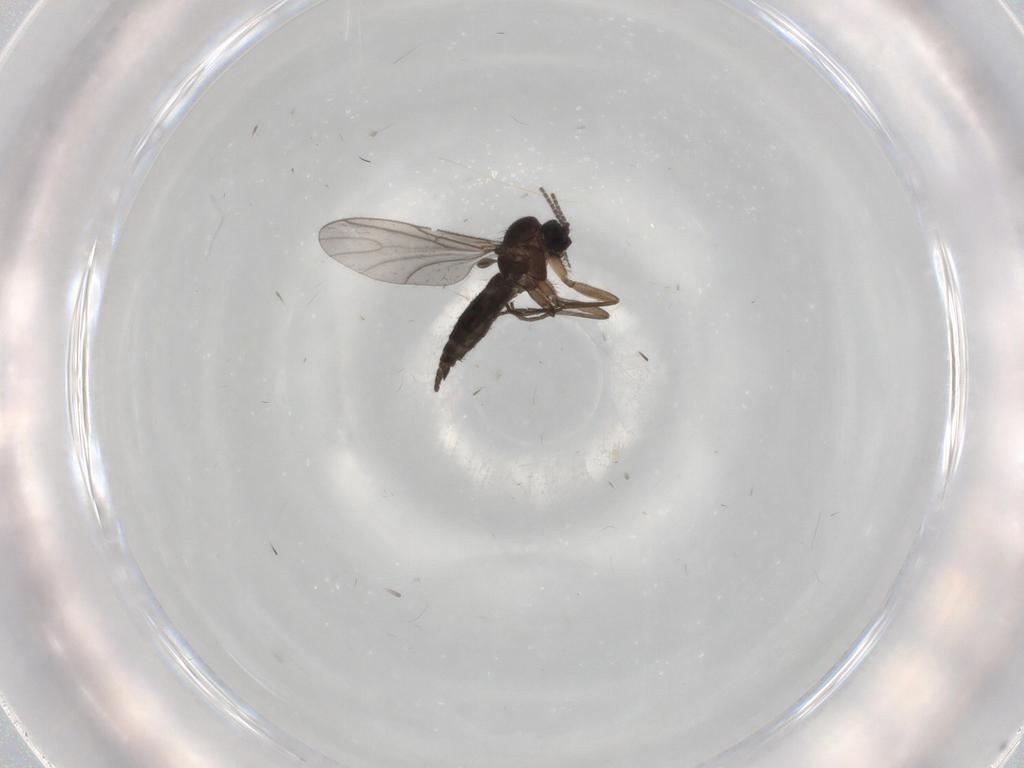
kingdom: Animalia
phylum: Arthropoda
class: Insecta
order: Diptera
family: Sciaridae
